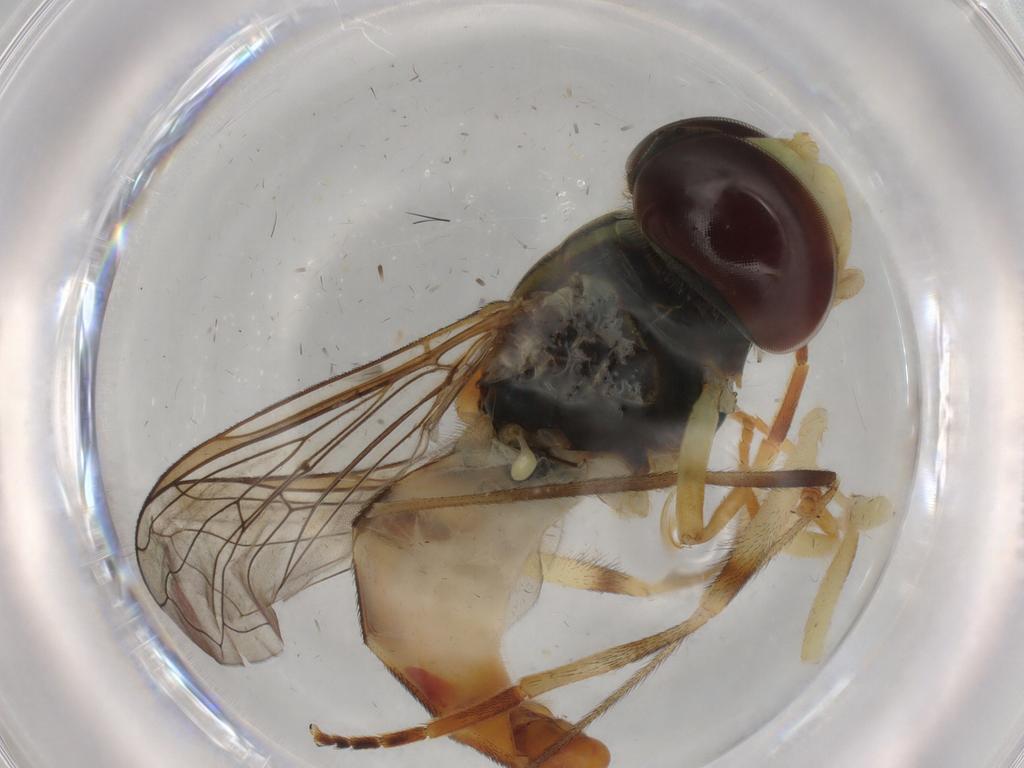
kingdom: Animalia
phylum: Arthropoda
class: Insecta
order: Diptera
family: Syrphidae
